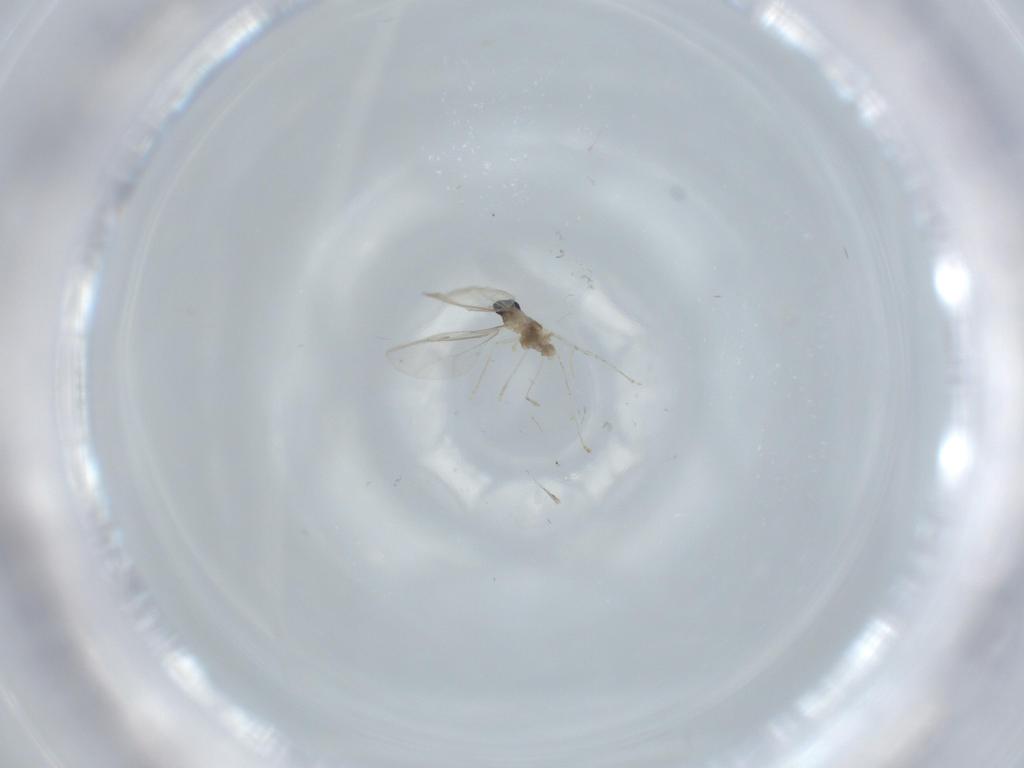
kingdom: Animalia
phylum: Arthropoda
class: Insecta
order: Diptera
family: Cecidomyiidae
